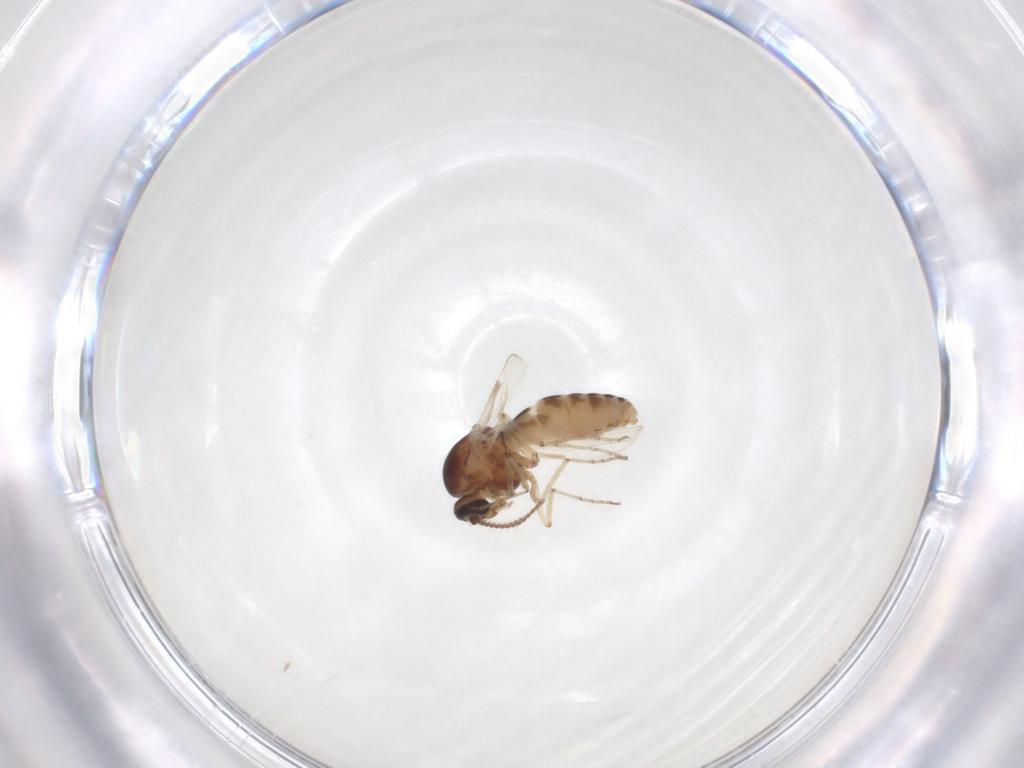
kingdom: Animalia
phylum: Arthropoda
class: Insecta
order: Diptera
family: Ceratopogonidae
